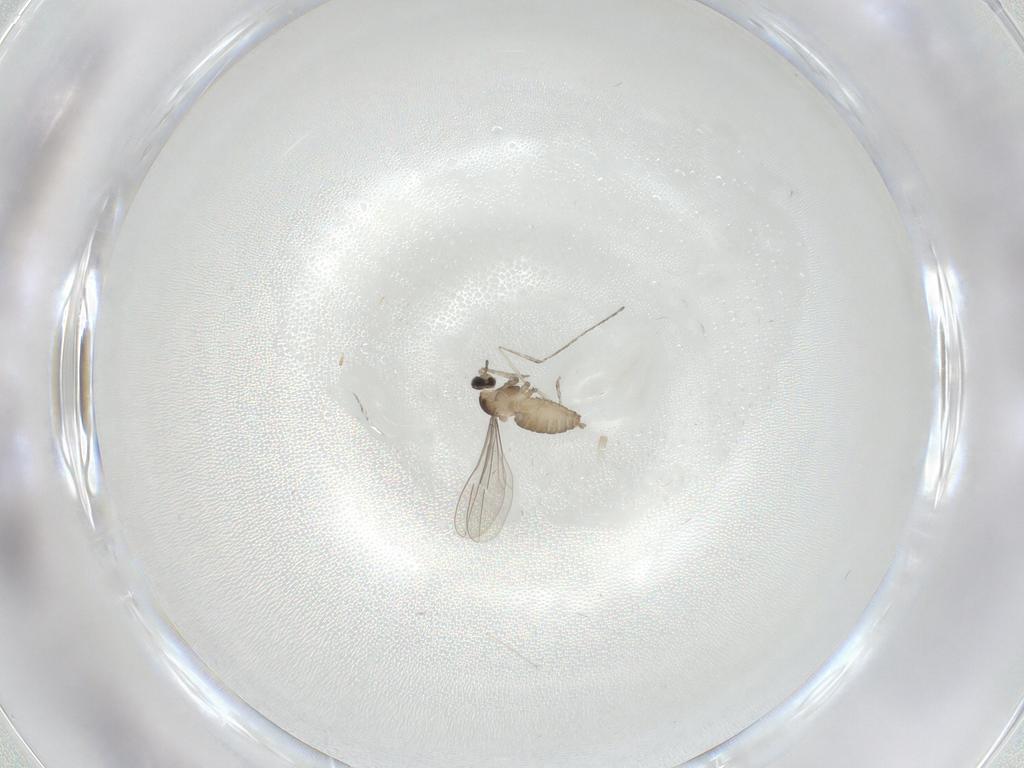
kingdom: Animalia
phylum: Arthropoda
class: Insecta
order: Diptera
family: Cecidomyiidae
